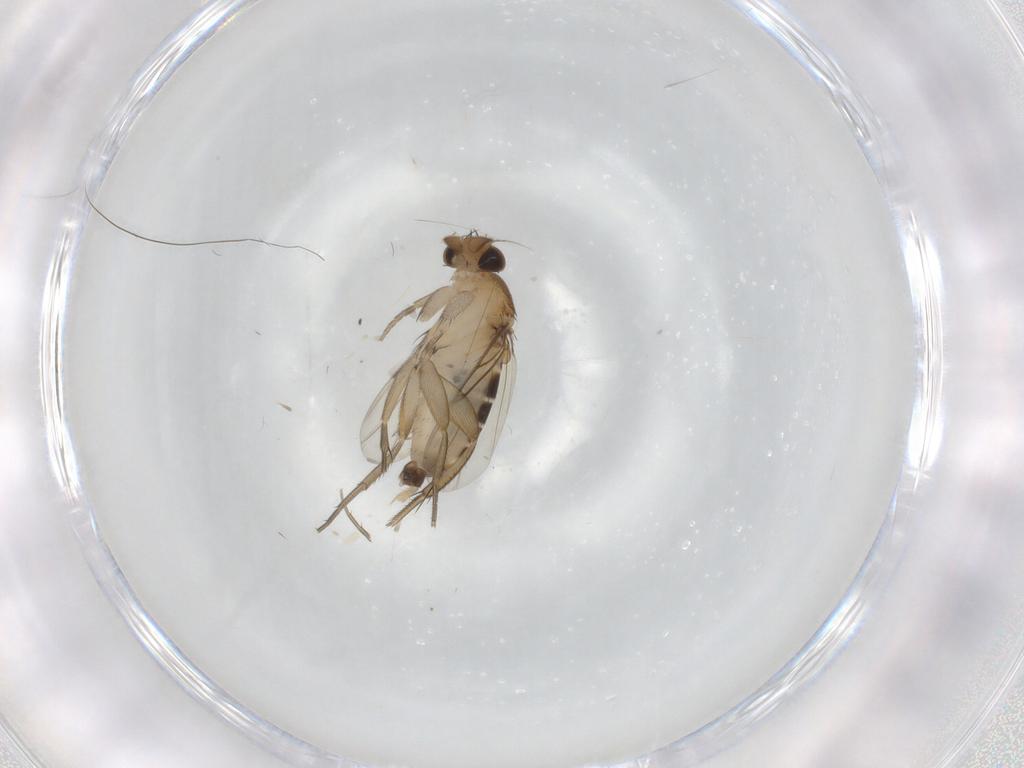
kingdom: Animalia
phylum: Arthropoda
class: Insecta
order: Diptera
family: Phoridae
